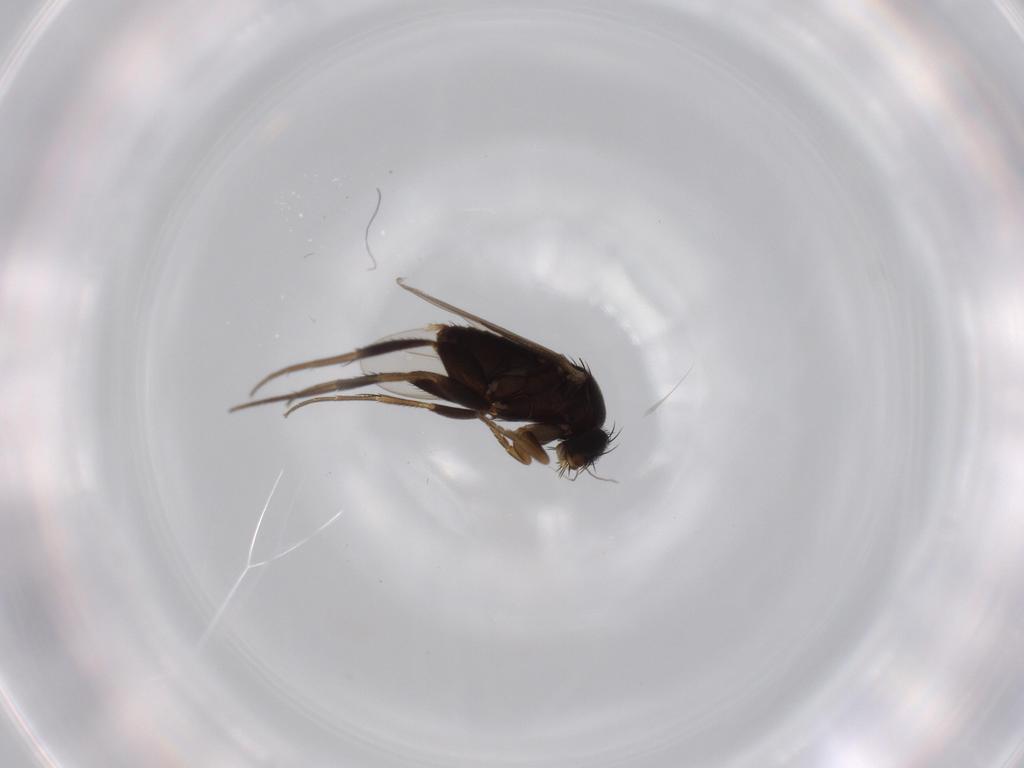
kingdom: Animalia
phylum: Arthropoda
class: Insecta
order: Diptera
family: Phoridae
